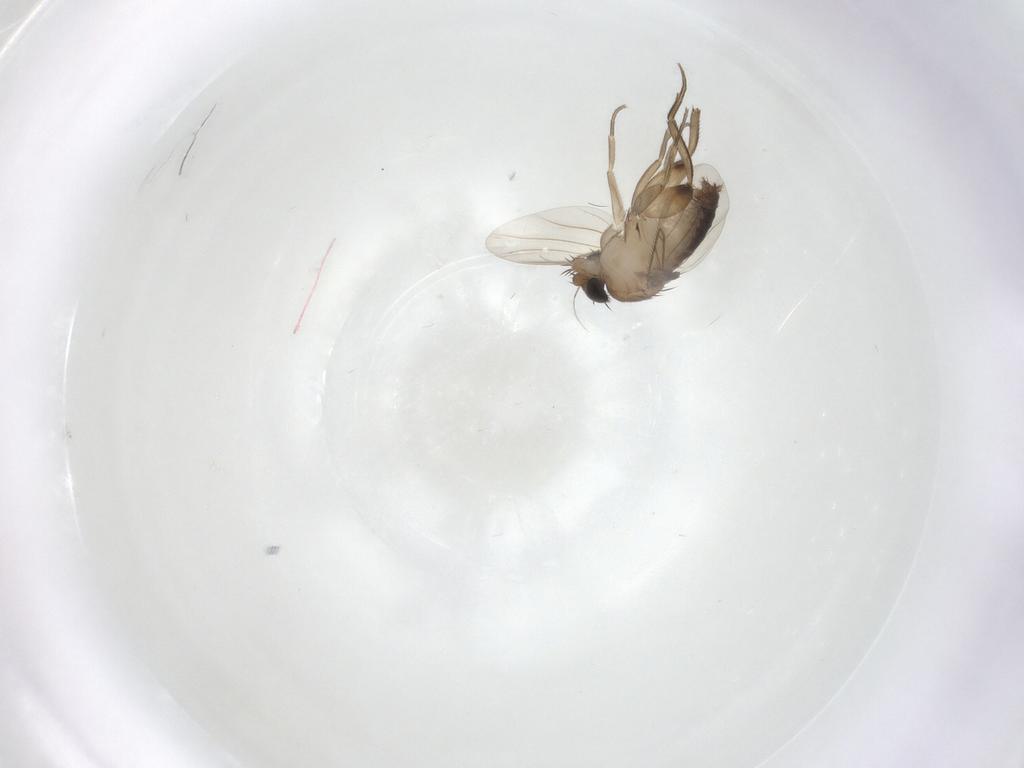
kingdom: Animalia
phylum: Arthropoda
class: Insecta
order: Diptera
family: Phoridae
